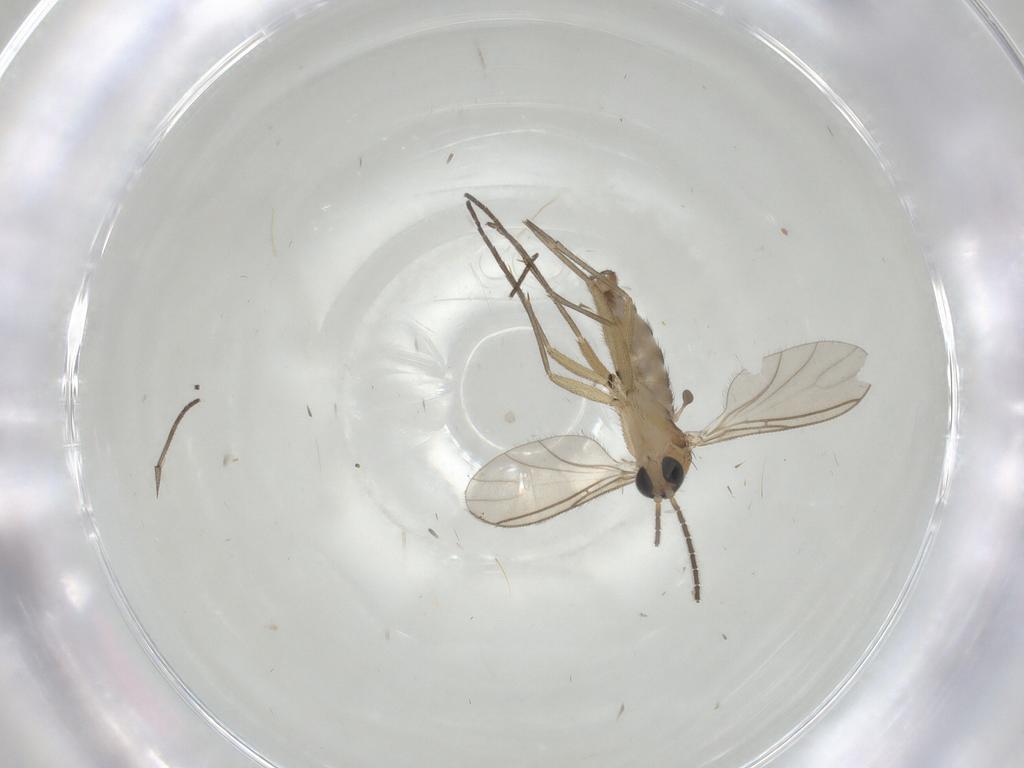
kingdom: Animalia
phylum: Arthropoda
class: Insecta
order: Diptera
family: Sciaridae
